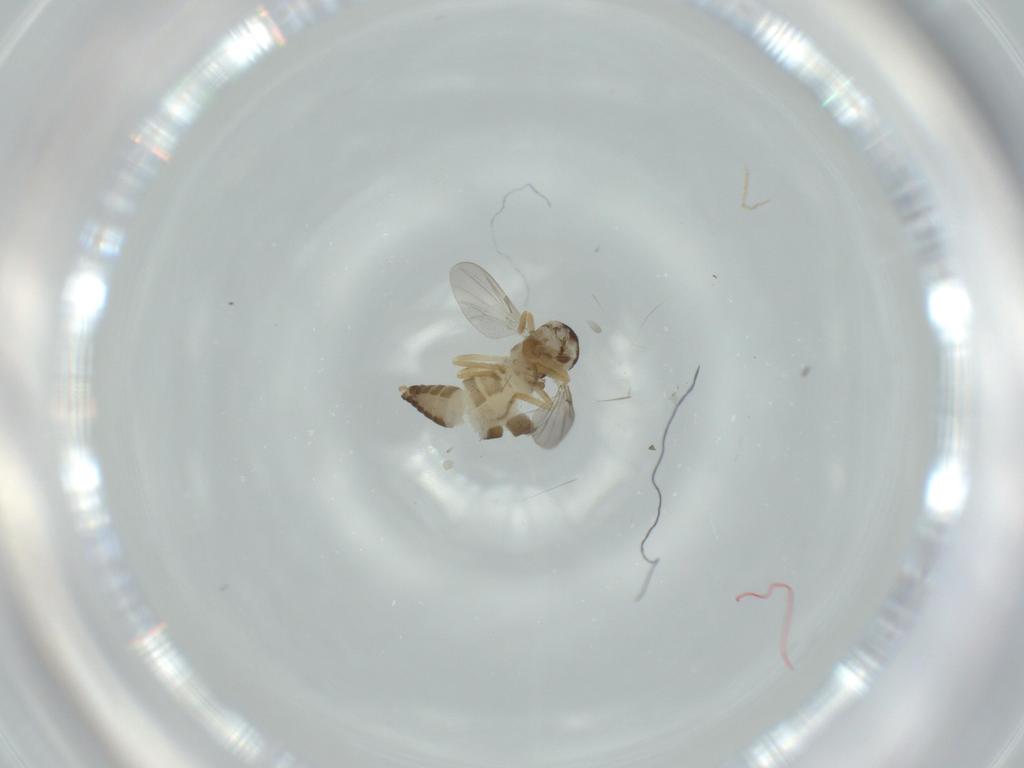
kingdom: Animalia
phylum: Arthropoda
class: Insecta
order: Diptera
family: Ceratopogonidae
